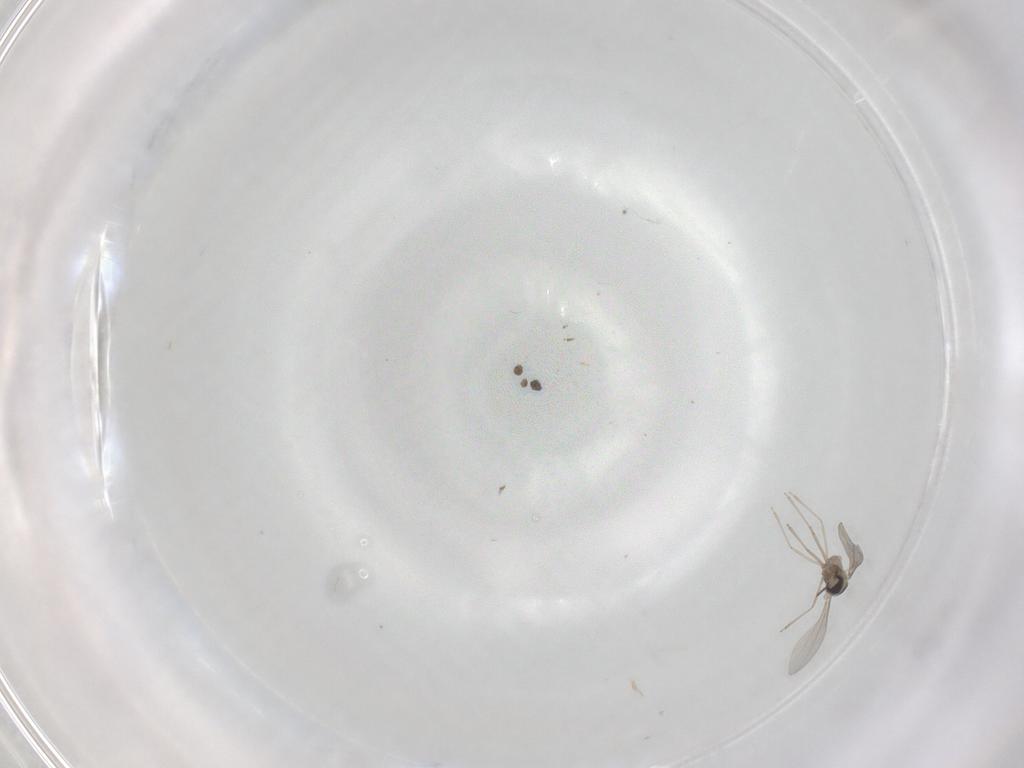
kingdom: Animalia
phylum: Arthropoda
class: Insecta
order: Diptera
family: Cecidomyiidae
